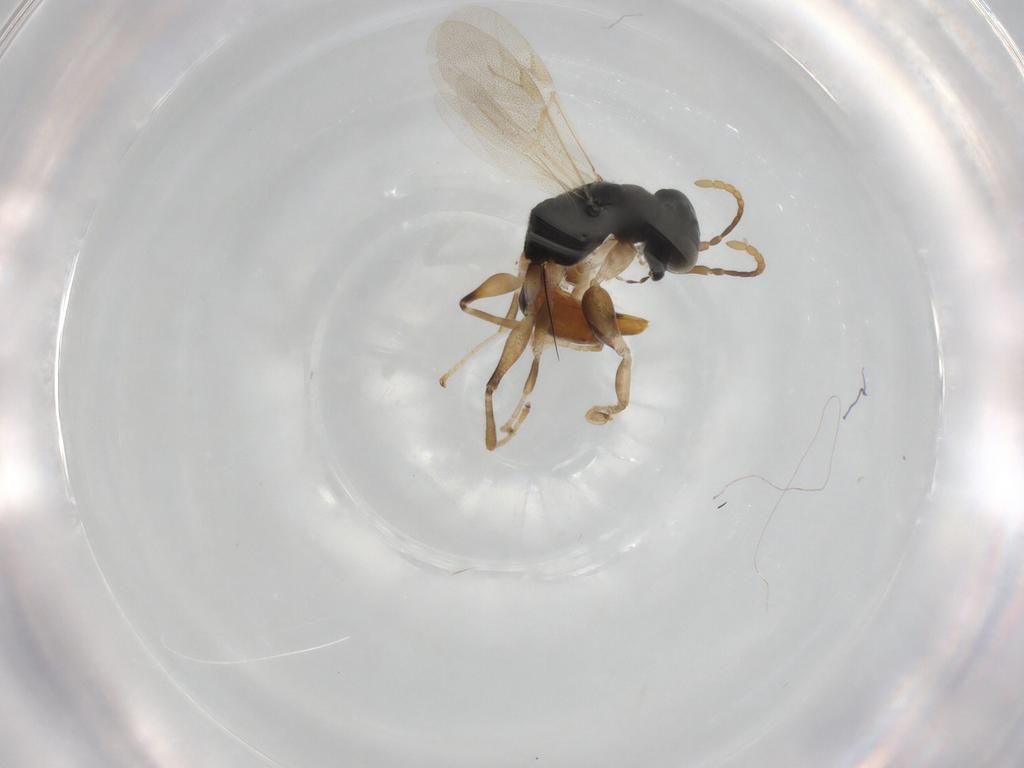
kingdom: Animalia
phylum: Arthropoda
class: Insecta
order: Hymenoptera
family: Dryinidae
